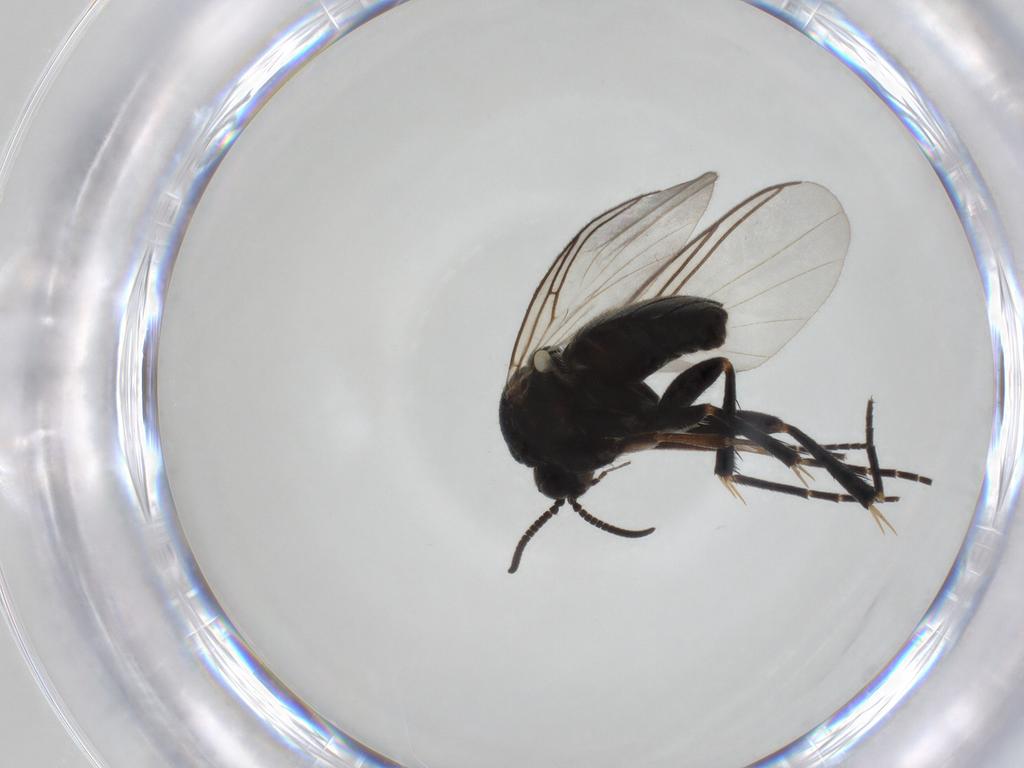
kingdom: Animalia
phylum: Arthropoda
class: Insecta
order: Diptera
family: Mycetophilidae
